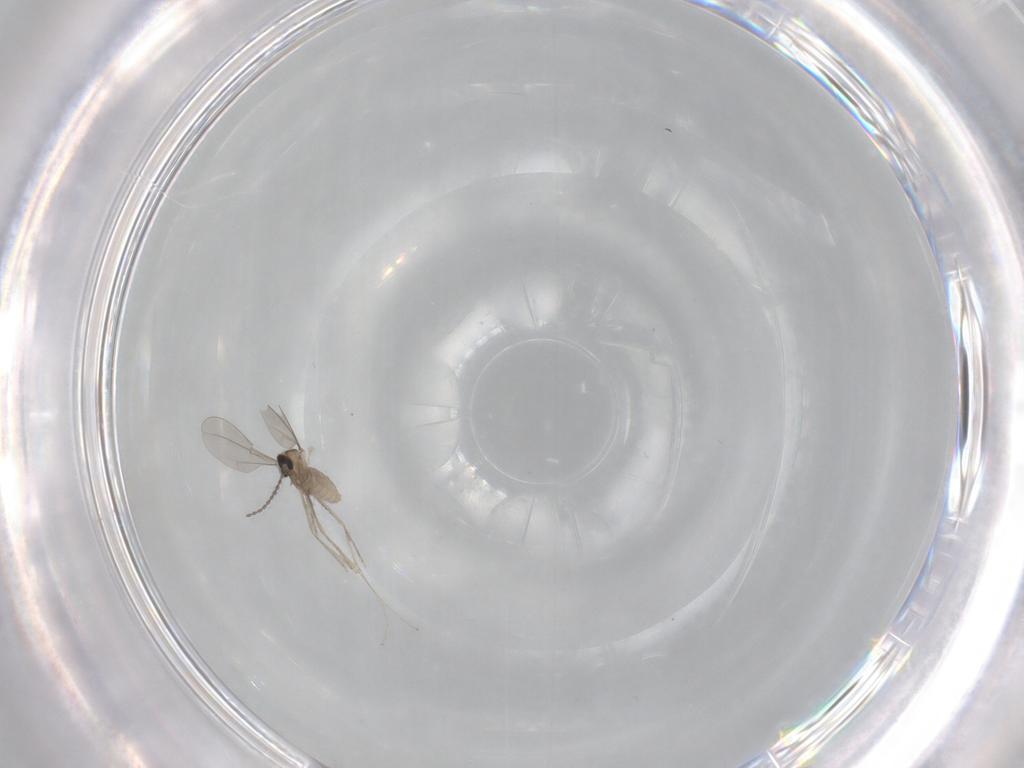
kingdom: Animalia
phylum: Arthropoda
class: Insecta
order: Diptera
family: Cecidomyiidae
